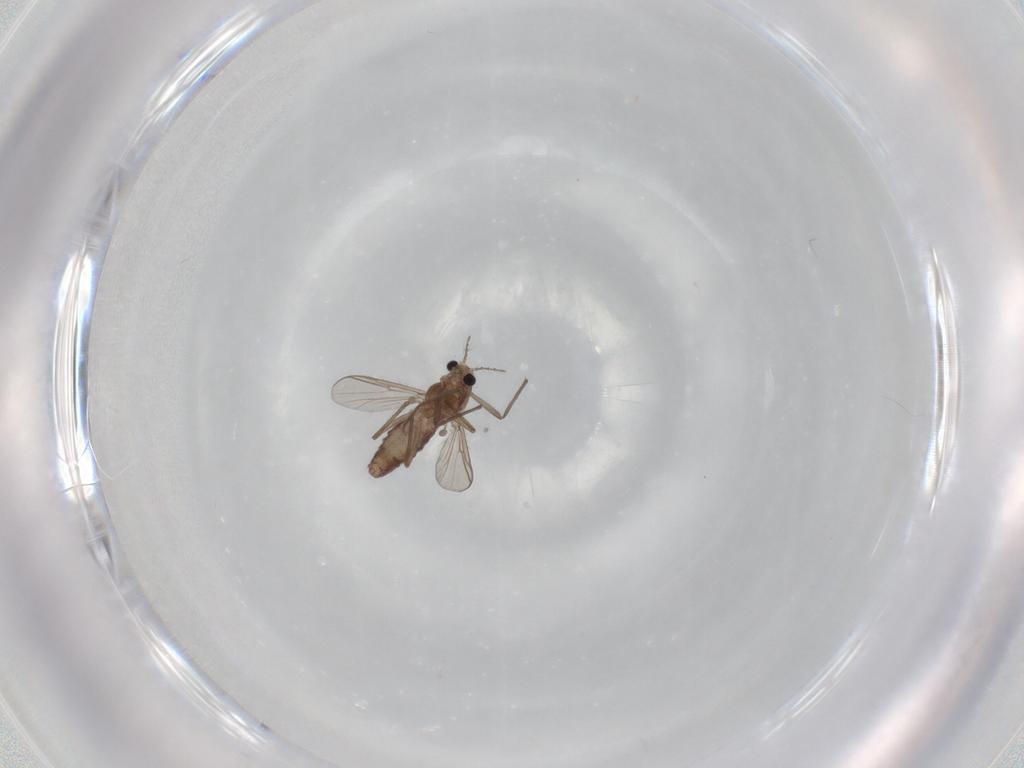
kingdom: Animalia
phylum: Arthropoda
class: Insecta
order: Diptera
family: Chironomidae
